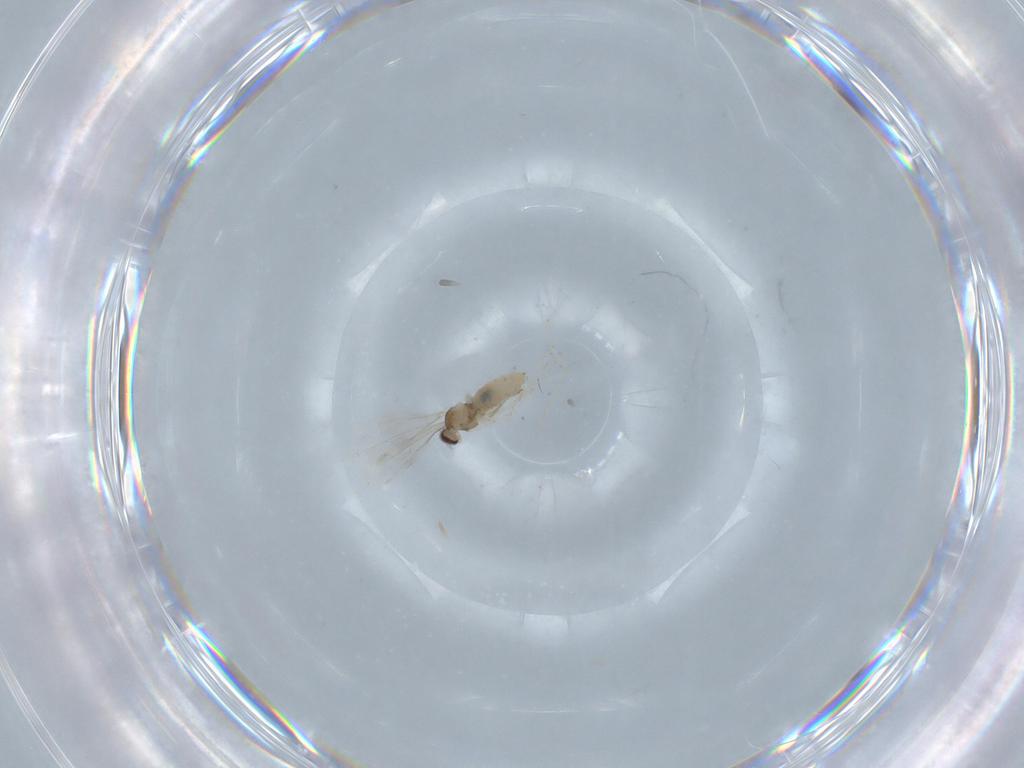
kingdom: Animalia
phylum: Arthropoda
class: Insecta
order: Diptera
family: Cecidomyiidae
